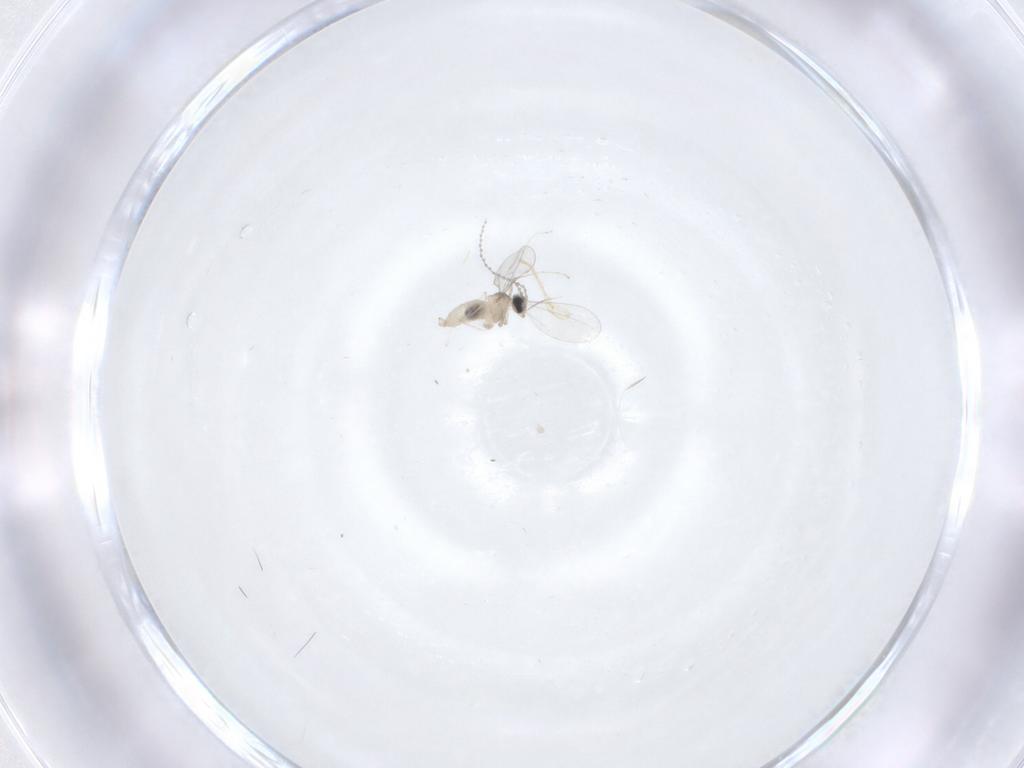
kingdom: Animalia
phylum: Arthropoda
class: Insecta
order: Diptera
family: Cecidomyiidae
